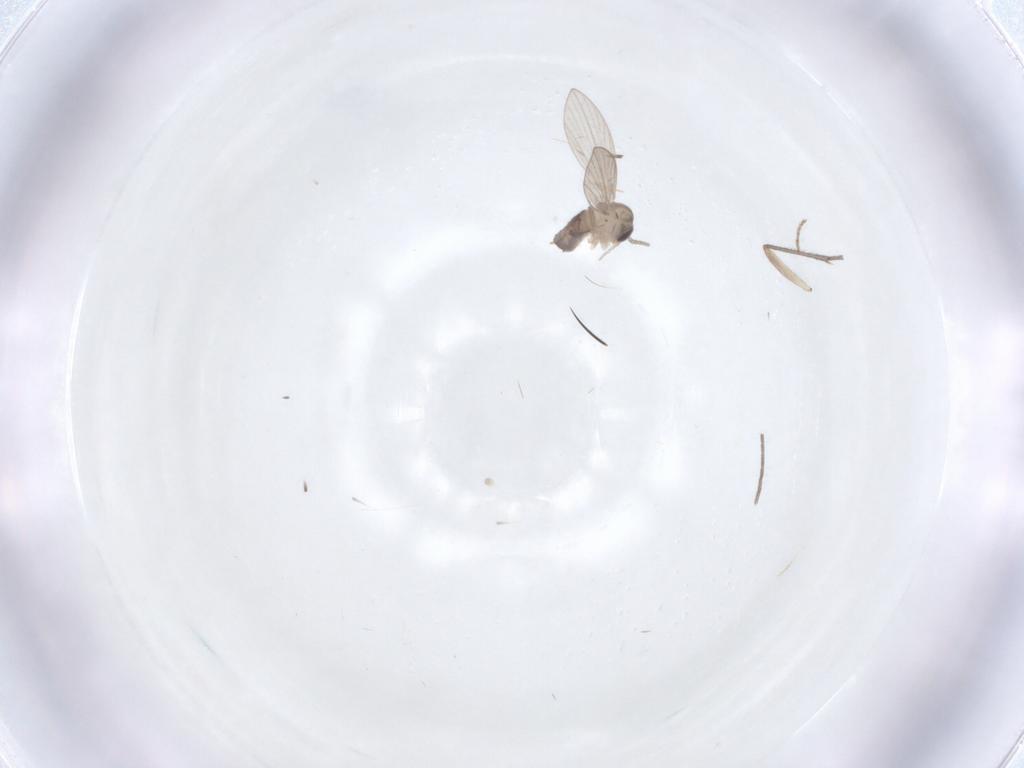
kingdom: Animalia
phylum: Arthropoda
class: Insecta
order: Diptera
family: Psychodidae
